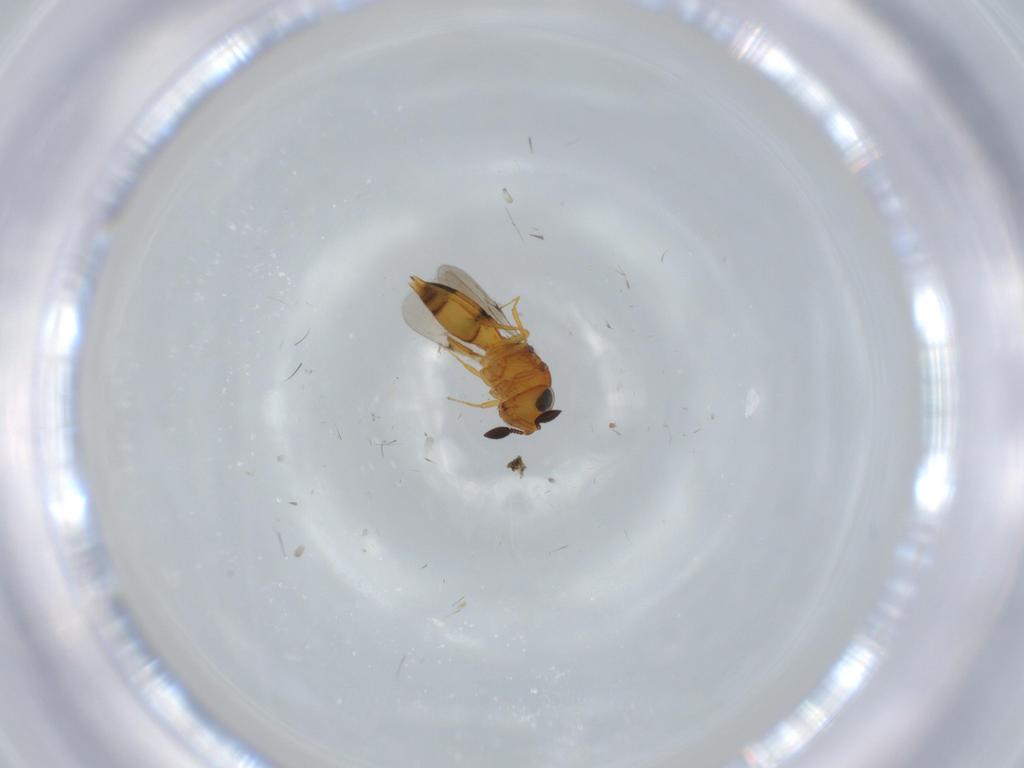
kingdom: Animalia
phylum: Arthropoda
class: Insecta
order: Hymenoptera
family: Scelionidae
